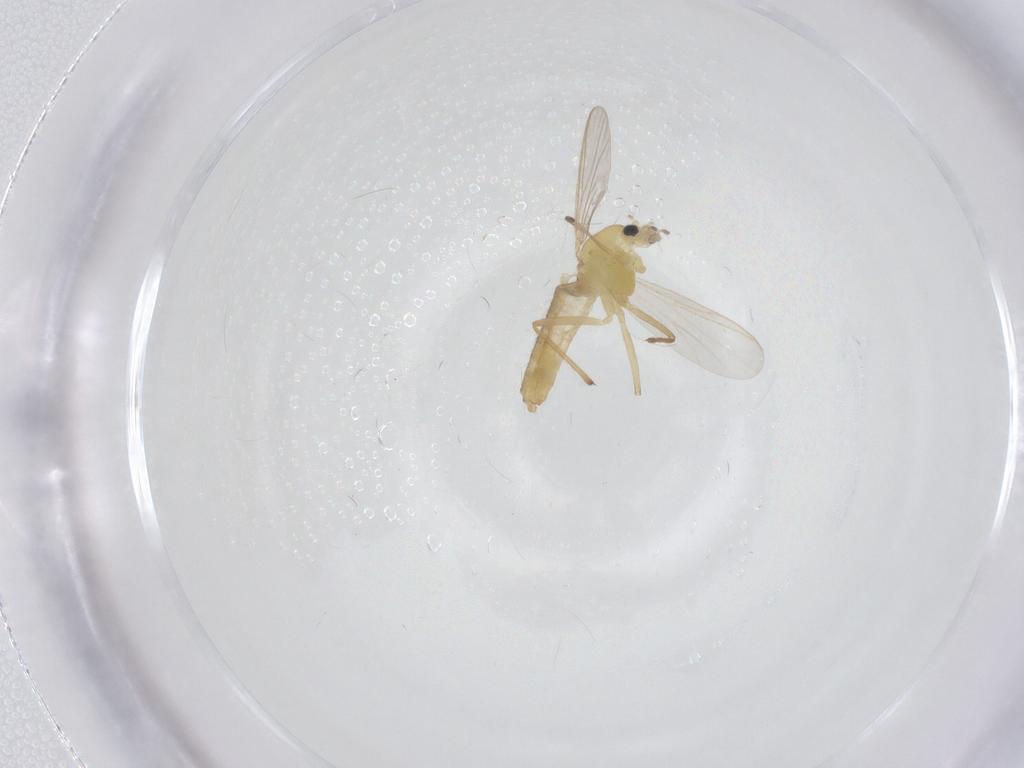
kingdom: Animalia
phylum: Arthropoda
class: Insecta
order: Diptera
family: Chironomidae
